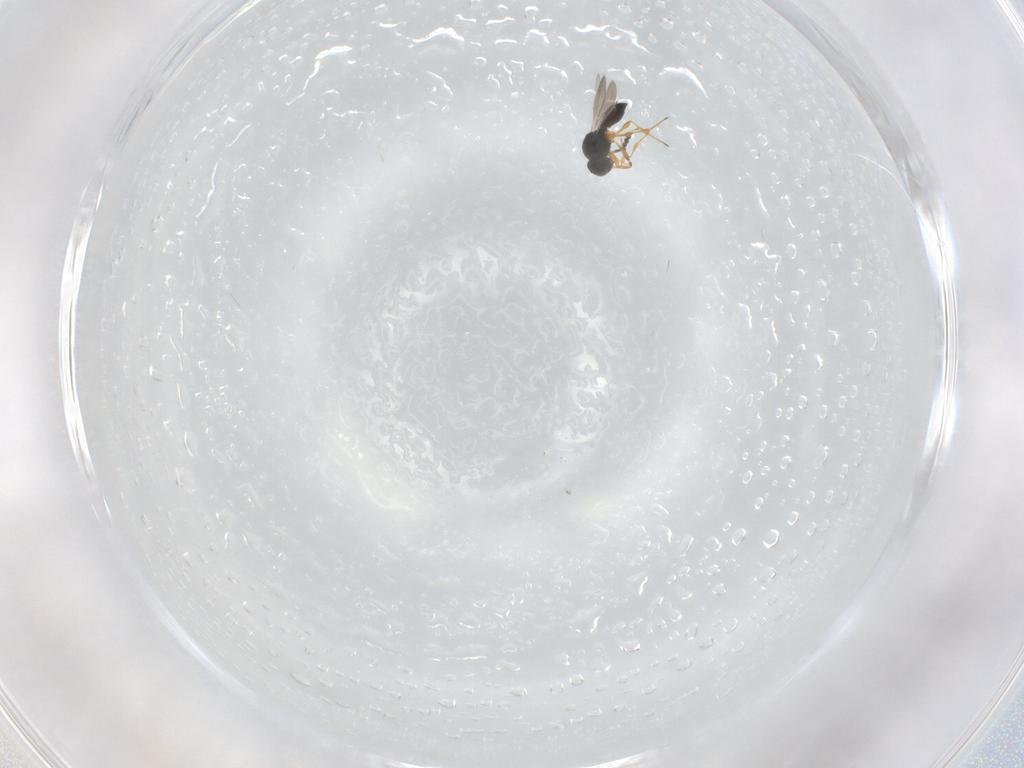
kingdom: Animalia
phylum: Arthropoda
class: Insecta
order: Hymenoptera
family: Platygastridae
